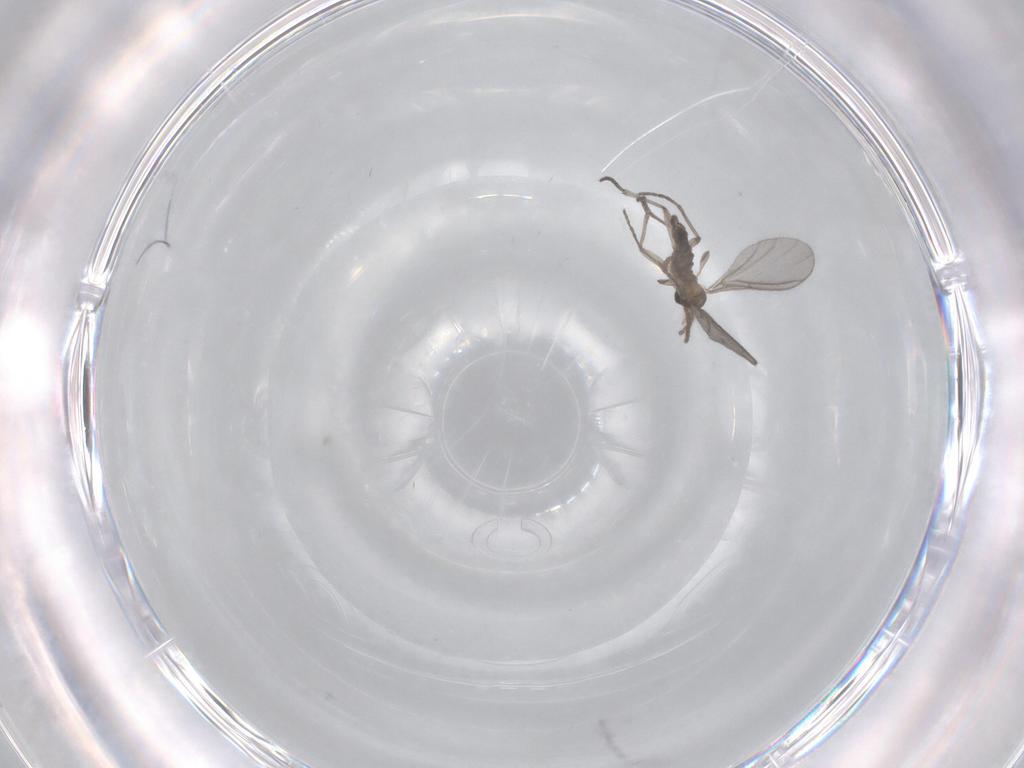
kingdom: Animalia
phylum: Arthropoda
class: Insecta
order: Diptera
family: Sciaridae
